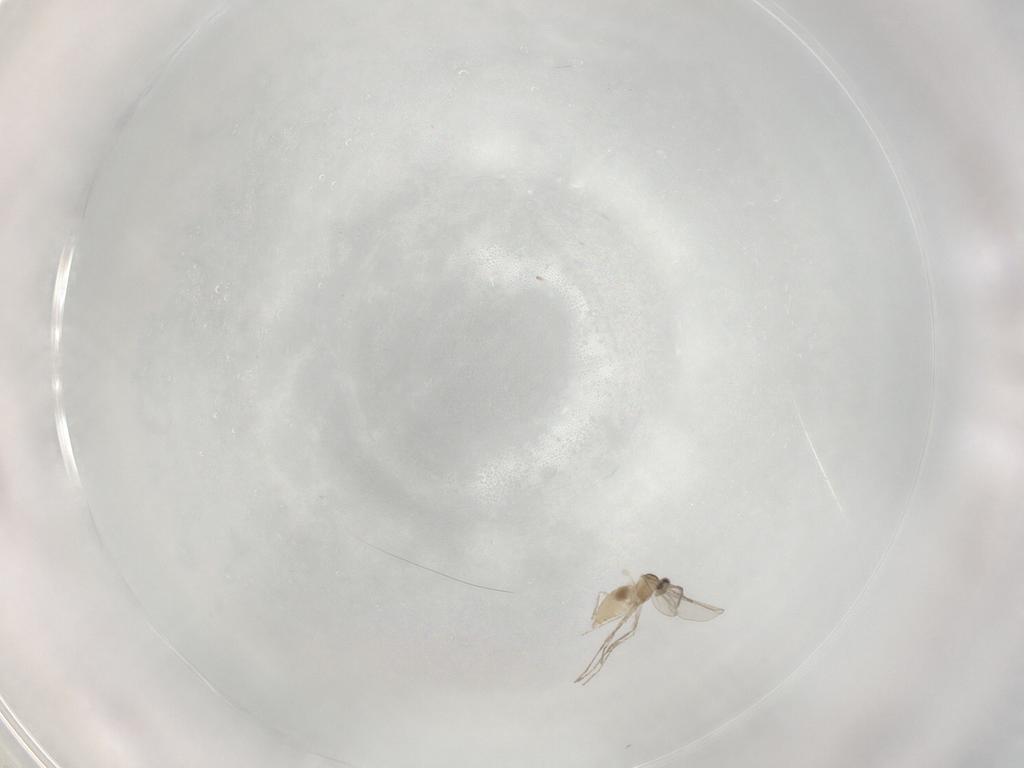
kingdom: Animalia
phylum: Arthropoda
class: Insecta
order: Diptera
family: Cecidomyiidae
